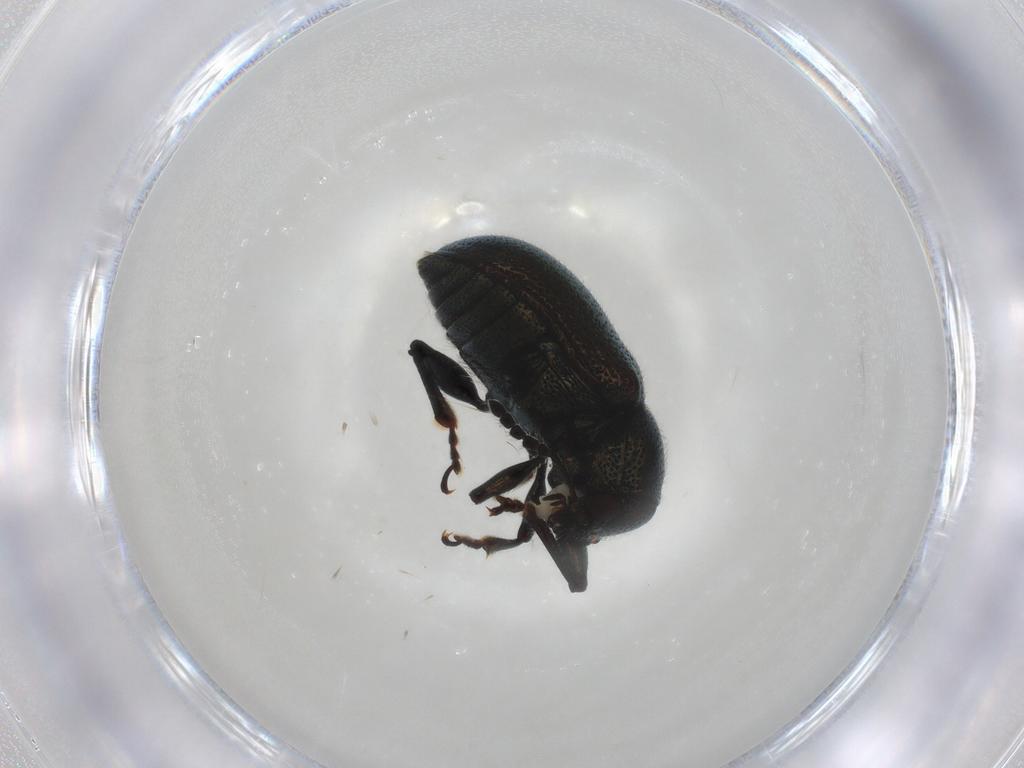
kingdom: Animalia
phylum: Arthropoda
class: Insecta
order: Coleoptera
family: Chrysomelidae
